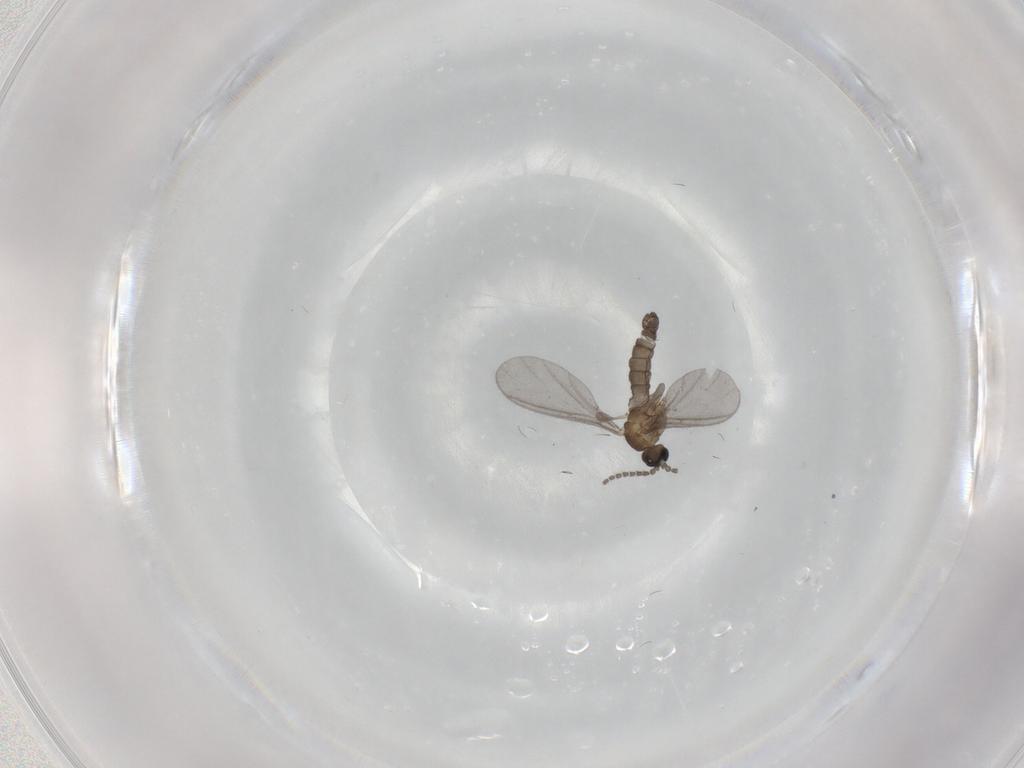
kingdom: Animalia
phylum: Arthropoda
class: Insecta
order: Diptera
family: Sciaridae
